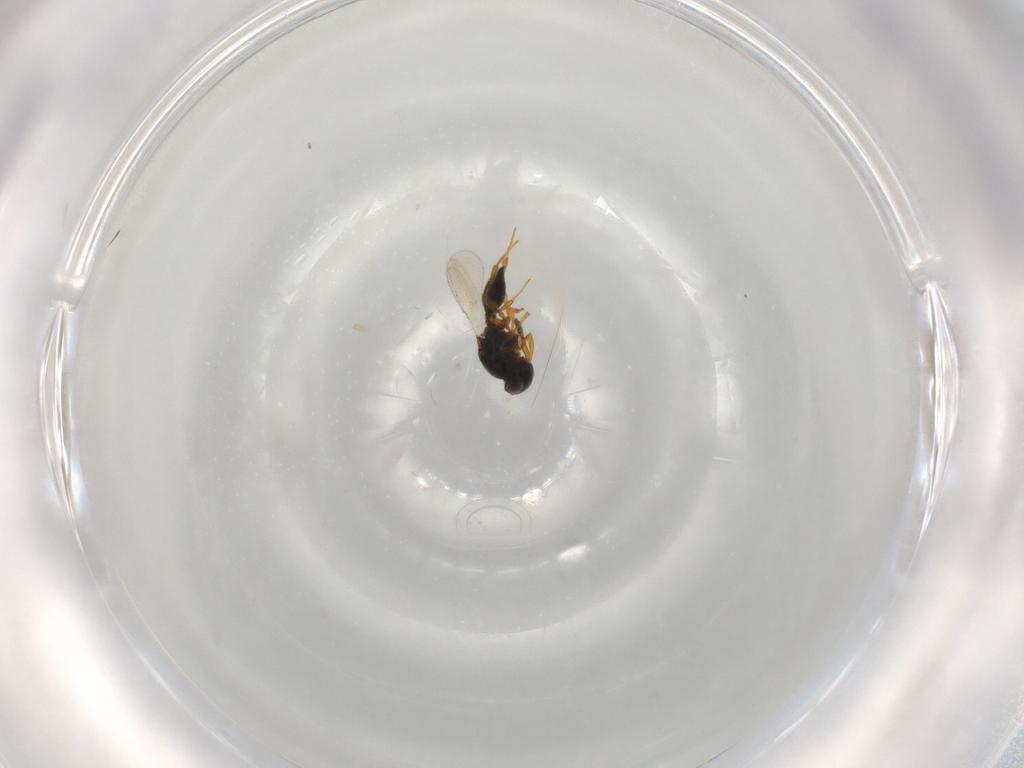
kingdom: Animalia
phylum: Arthropoda
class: Insecta
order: Hymenoptera
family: Platygastridae
